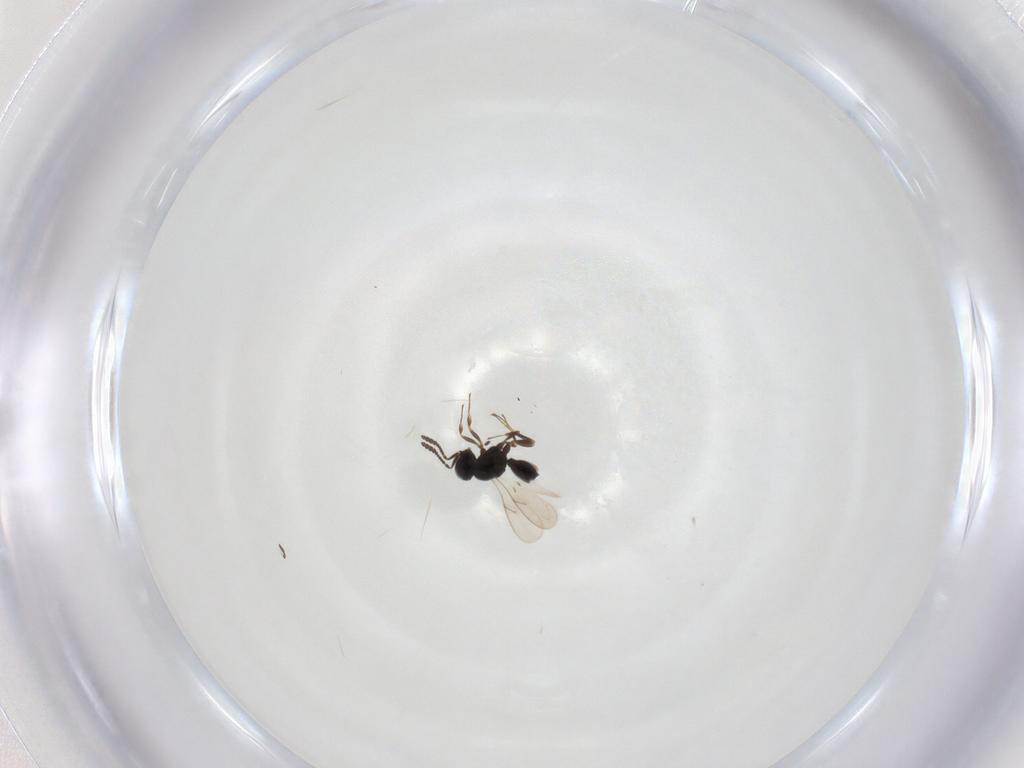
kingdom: Animalia
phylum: Arthropoda
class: Insecta
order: Hymenoptera
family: Scelionidae
